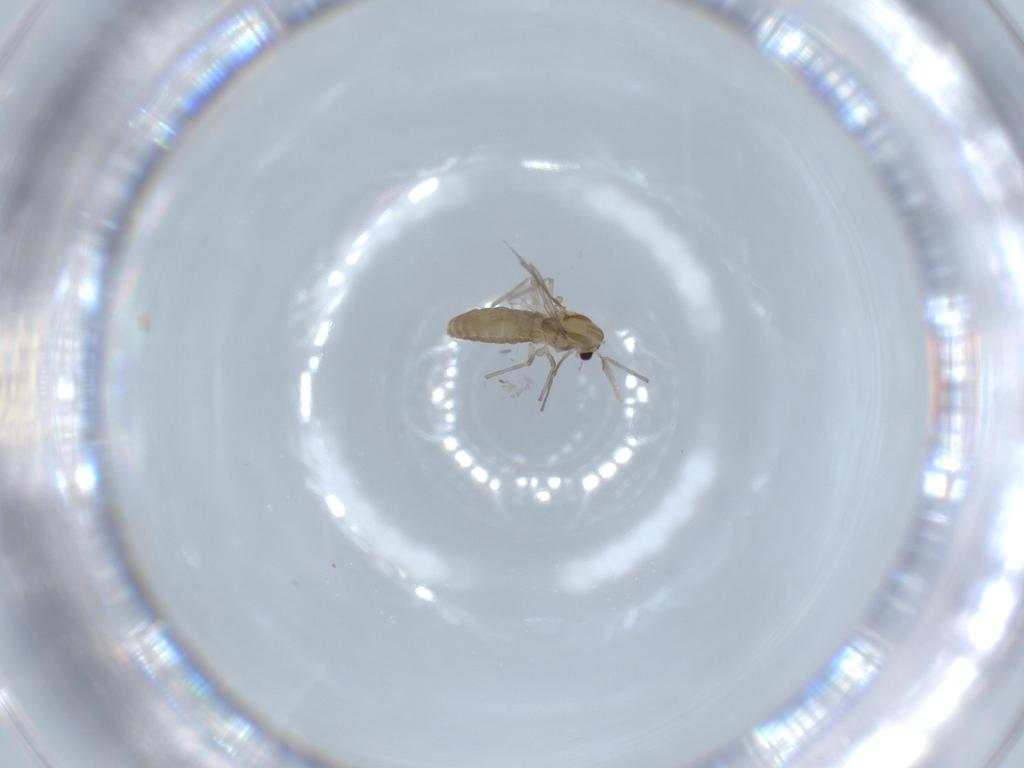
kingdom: Animalia
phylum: Arthropoda
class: Insecta
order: Diptera
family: Chironomidae
